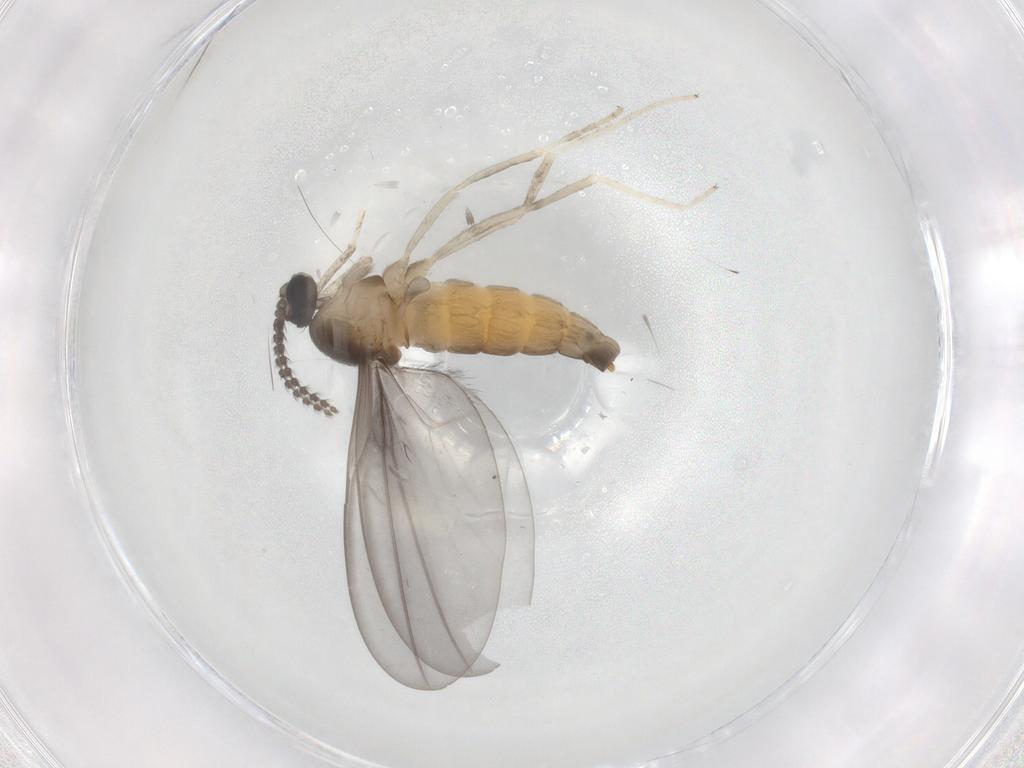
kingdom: Animalia
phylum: Arthropoda
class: Insecta
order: Diptera
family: Cecidomyiidae
